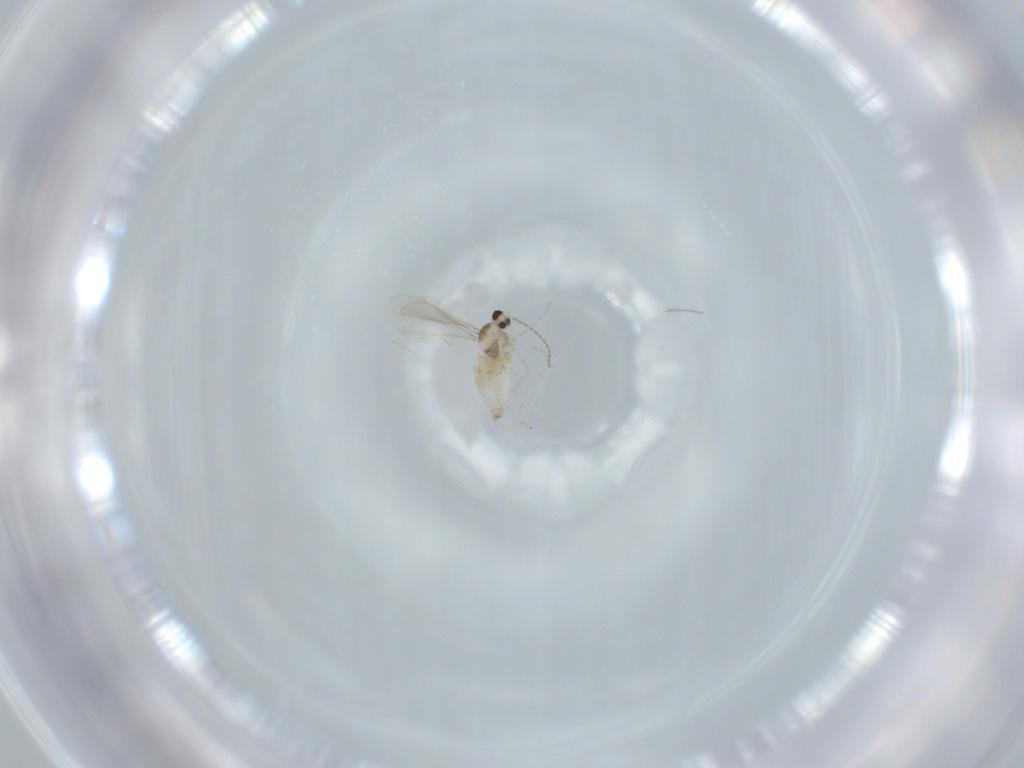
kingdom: Animalia
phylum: Arthropoda
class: Insecta
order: Diptera
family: Cecidomyiidae
